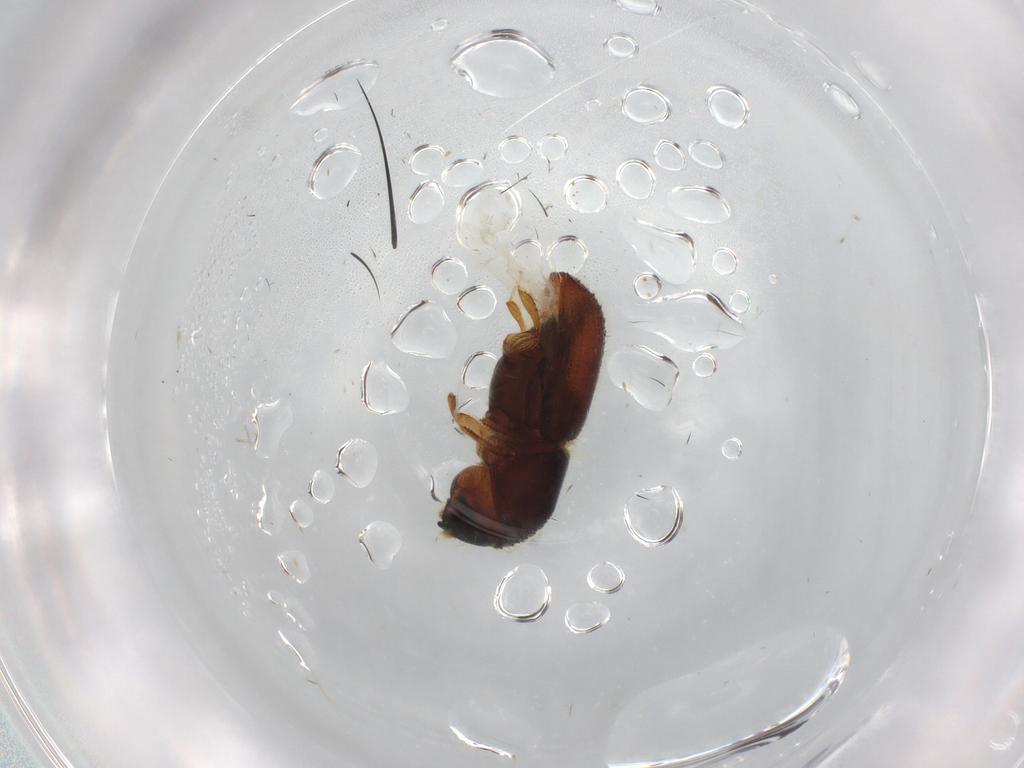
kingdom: Animalia
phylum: Arthropoda
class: Insecta
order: Coleoptera
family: Curculionidae
